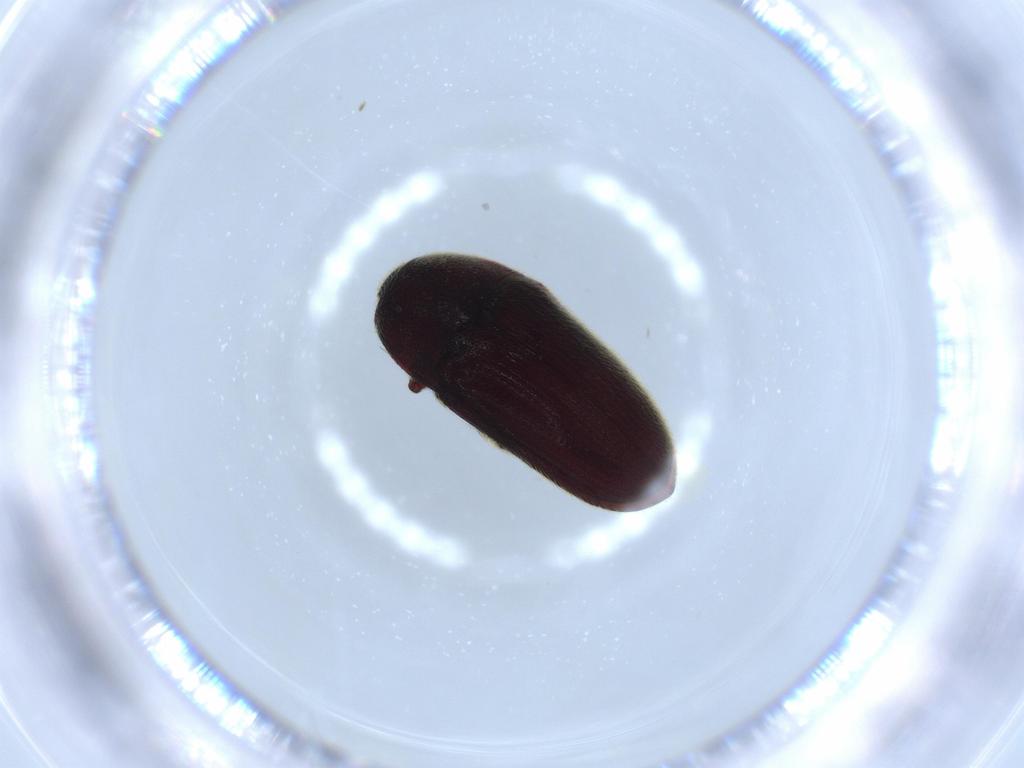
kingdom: Animalia
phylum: Arthropoda
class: Insecta
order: Coleoptera
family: Throscidae
